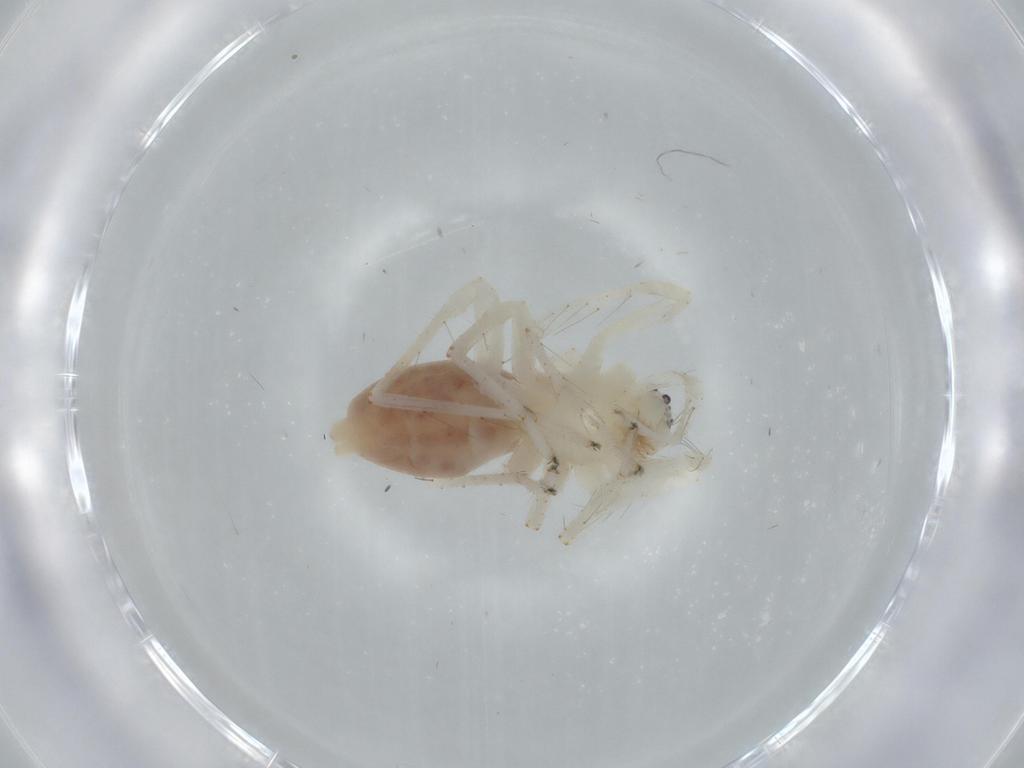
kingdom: Animalia
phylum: Arthropoda
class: Arachnida
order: Araneae
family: Anyphaenidae
